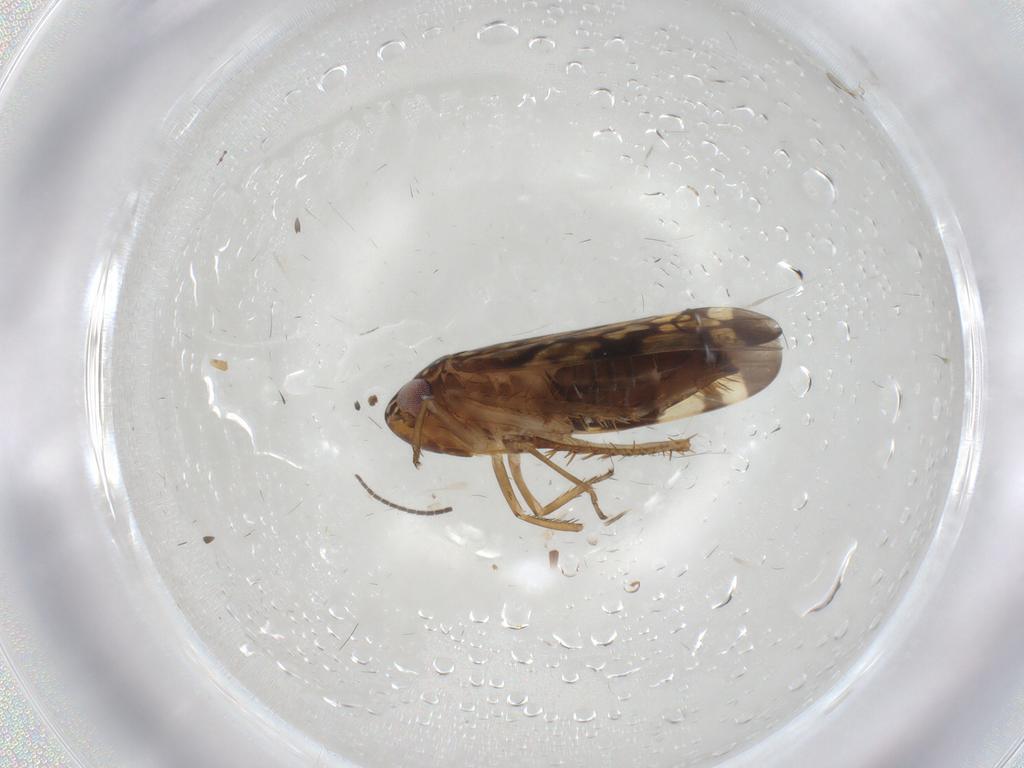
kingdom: Animalia
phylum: Arthropoda
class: Insecta
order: Hemiptera
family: Cicadellidae
